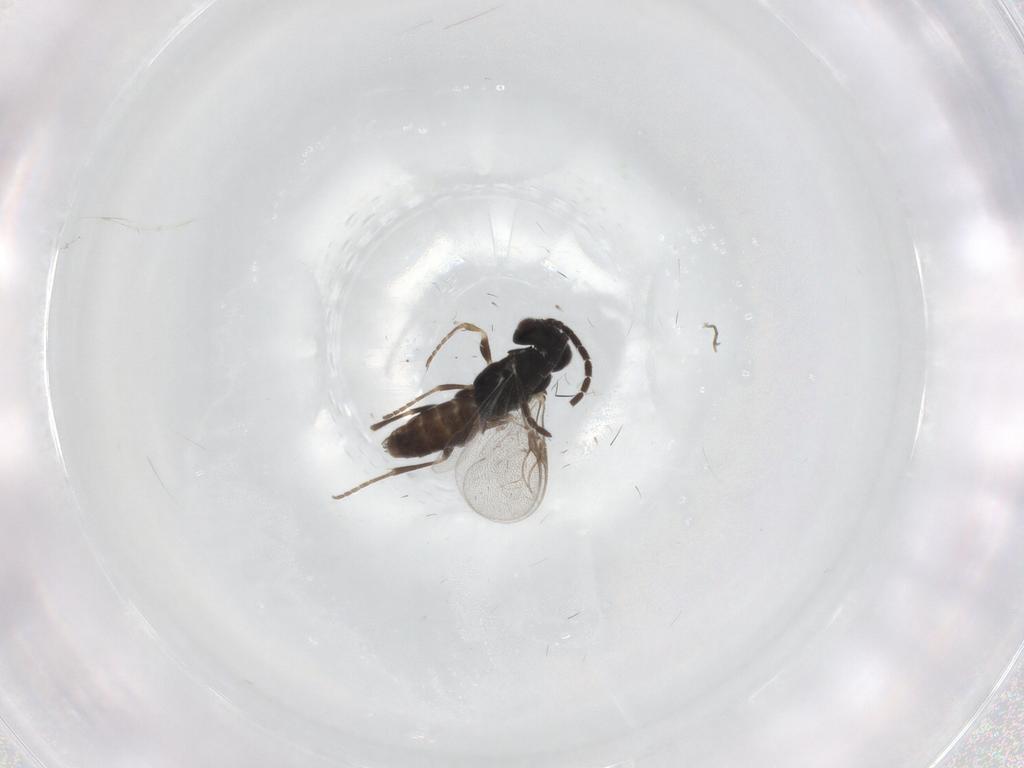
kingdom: Animalia
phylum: Arthropoda
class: Insecta
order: Hymenoptera
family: Dryinidae
